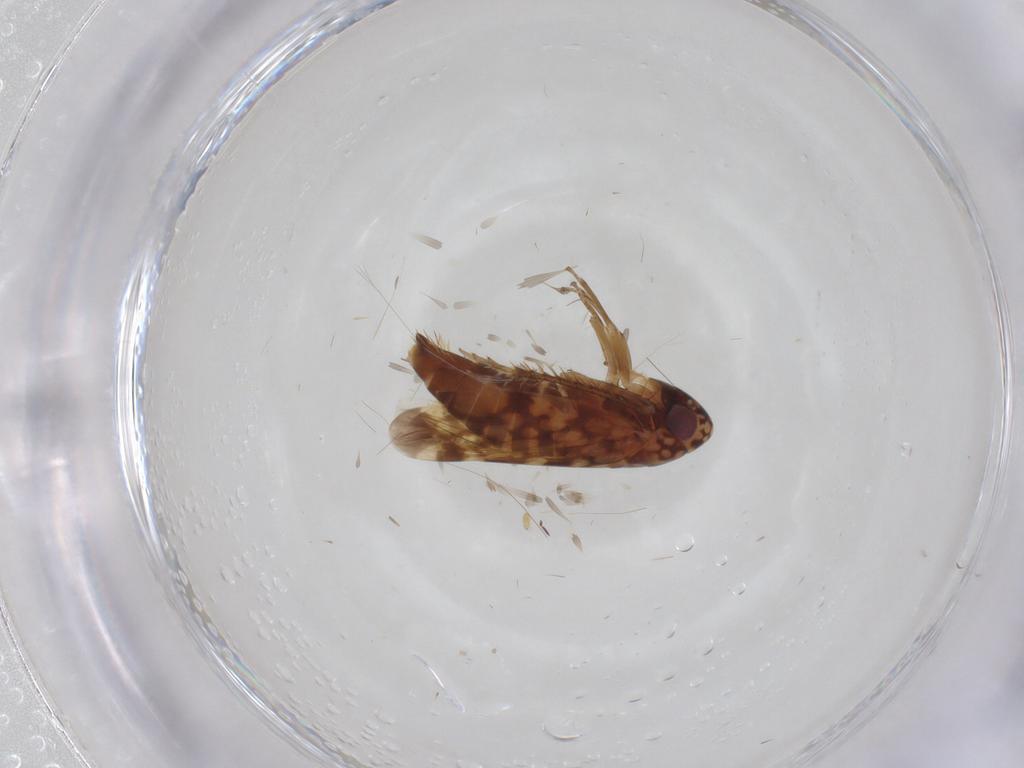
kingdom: Animalia
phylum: Arthropoda
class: Insecta
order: Hemiptera
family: Cicadellidae
